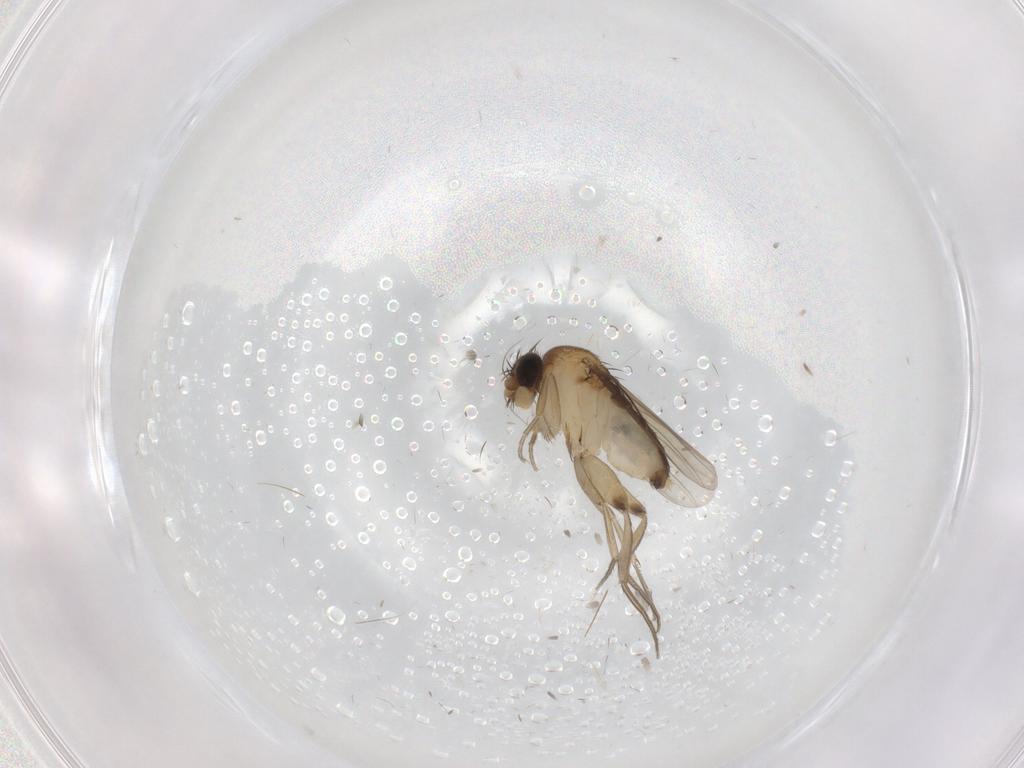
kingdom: Animalia
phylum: Arthropoda
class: Insecta
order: Diptera
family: Phoridae
